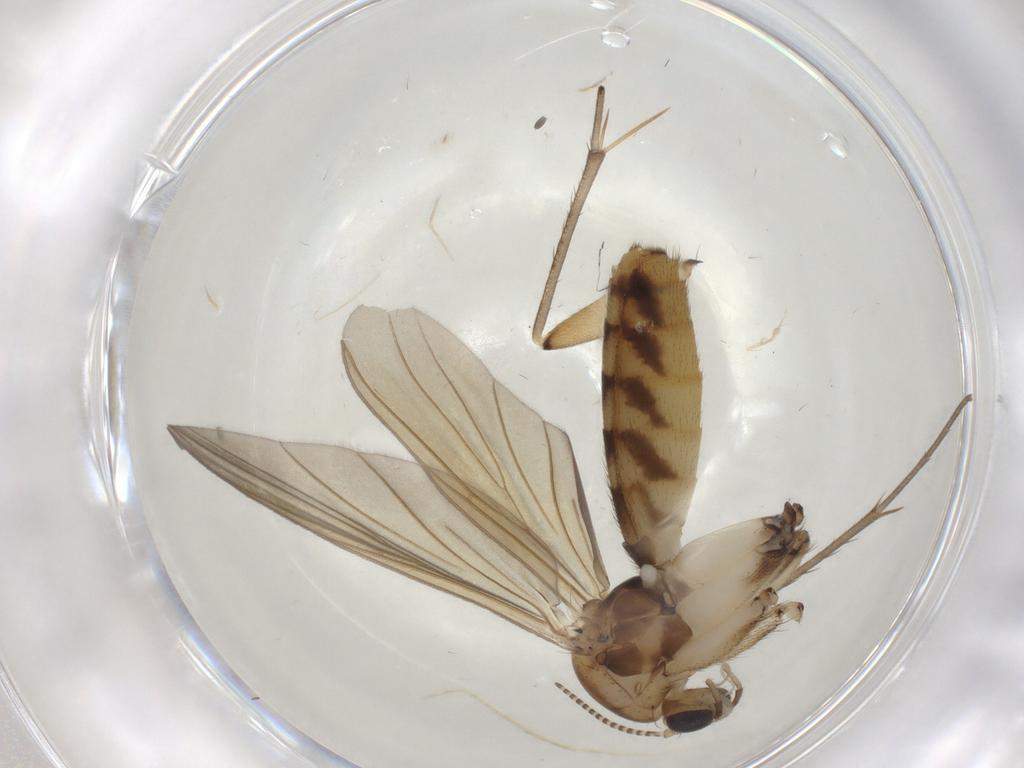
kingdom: Animalia
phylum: Arthropoda
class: Insecta
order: Diptera
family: Mycetophilidae
